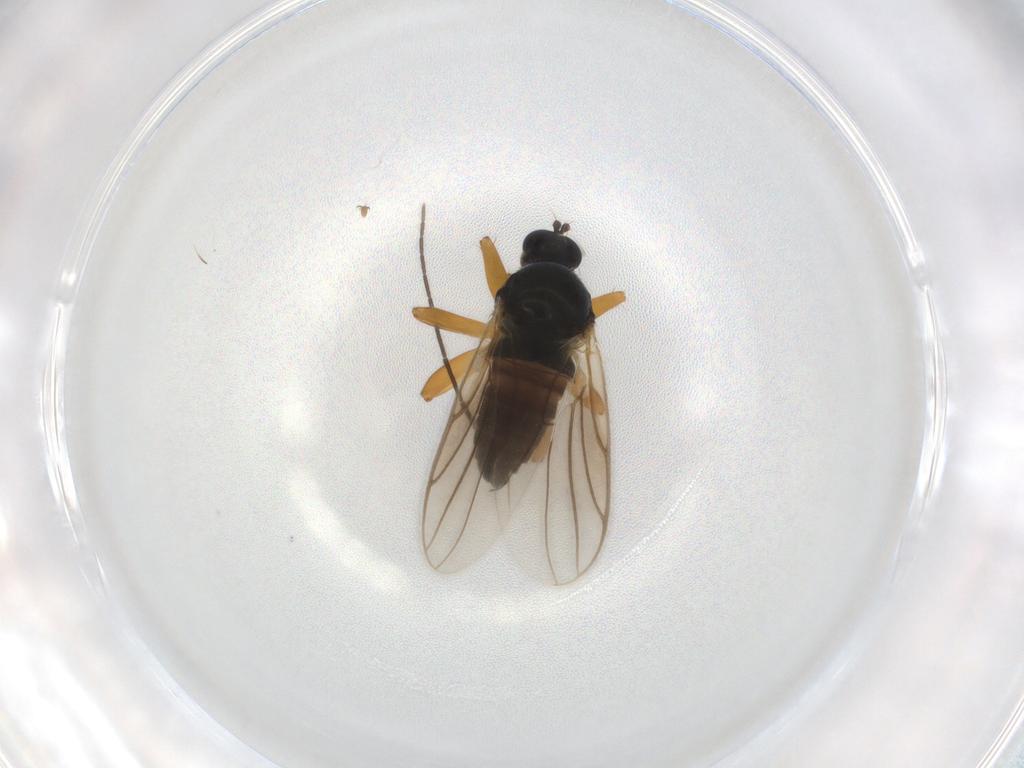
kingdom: Animalia
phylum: Arthropoda
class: Insecta
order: Diptera
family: Hybotidae
